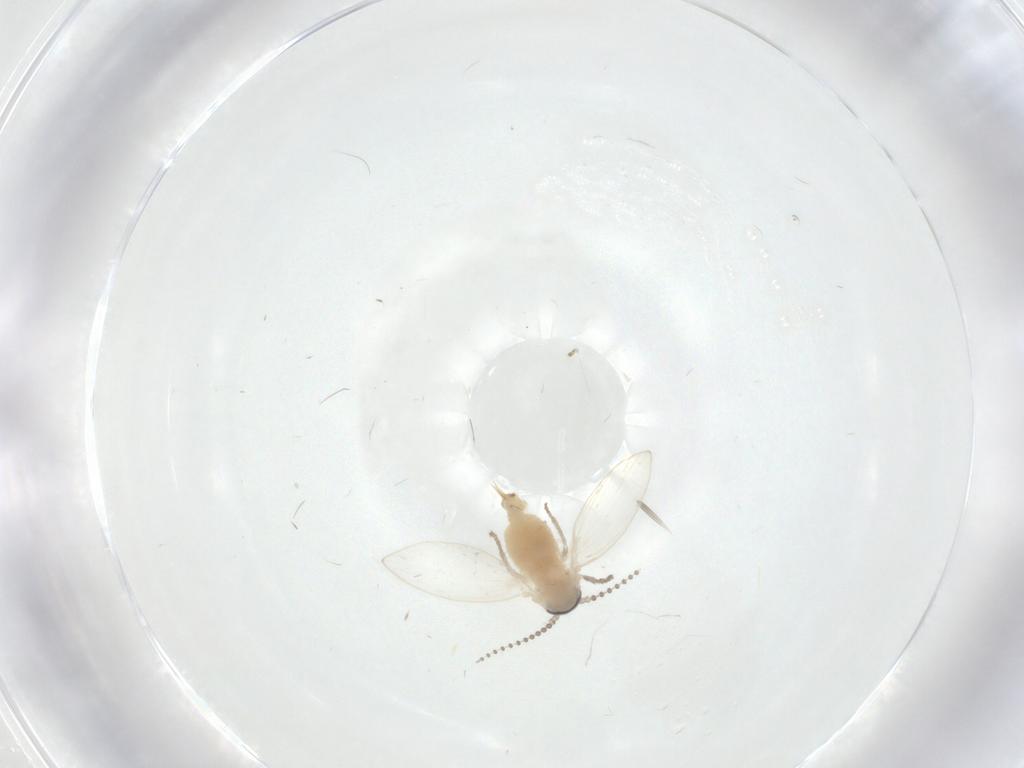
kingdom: Animalia
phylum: Arthropoda
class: Insecta
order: Diptera
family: Psychodidae
